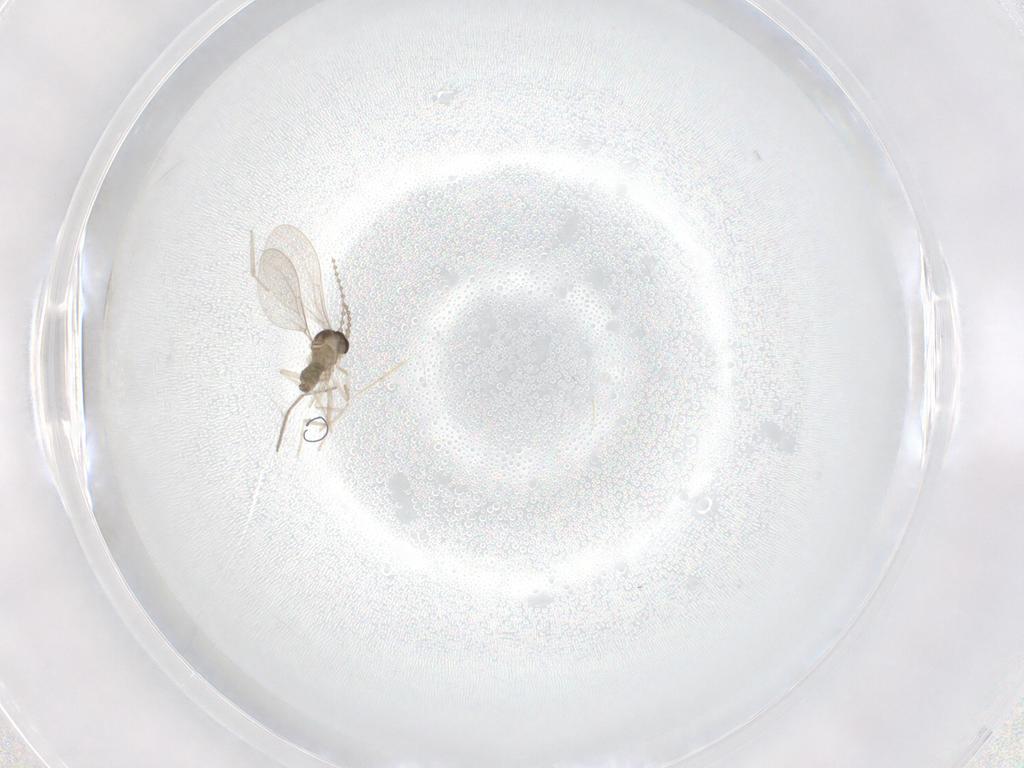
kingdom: Animalia
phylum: Arthropoda
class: Insecta
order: Diptera
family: Cecidomyiidae
